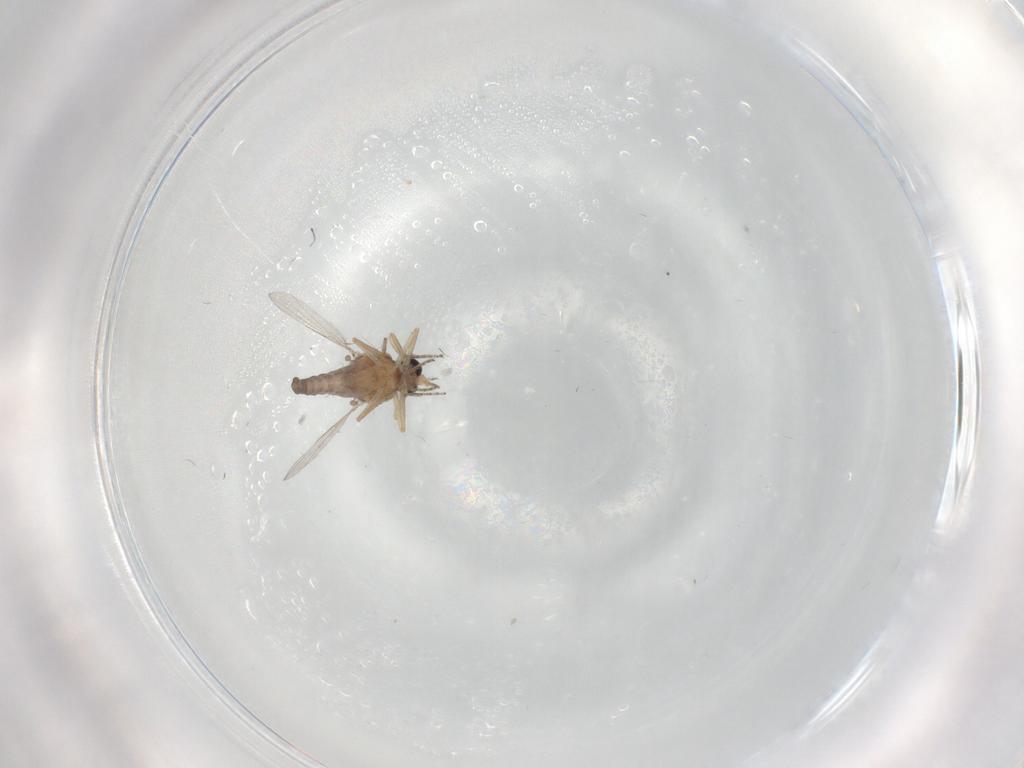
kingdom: Animalia
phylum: Arthropoda
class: Insecta
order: Diptera
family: Ceratopogonidae
